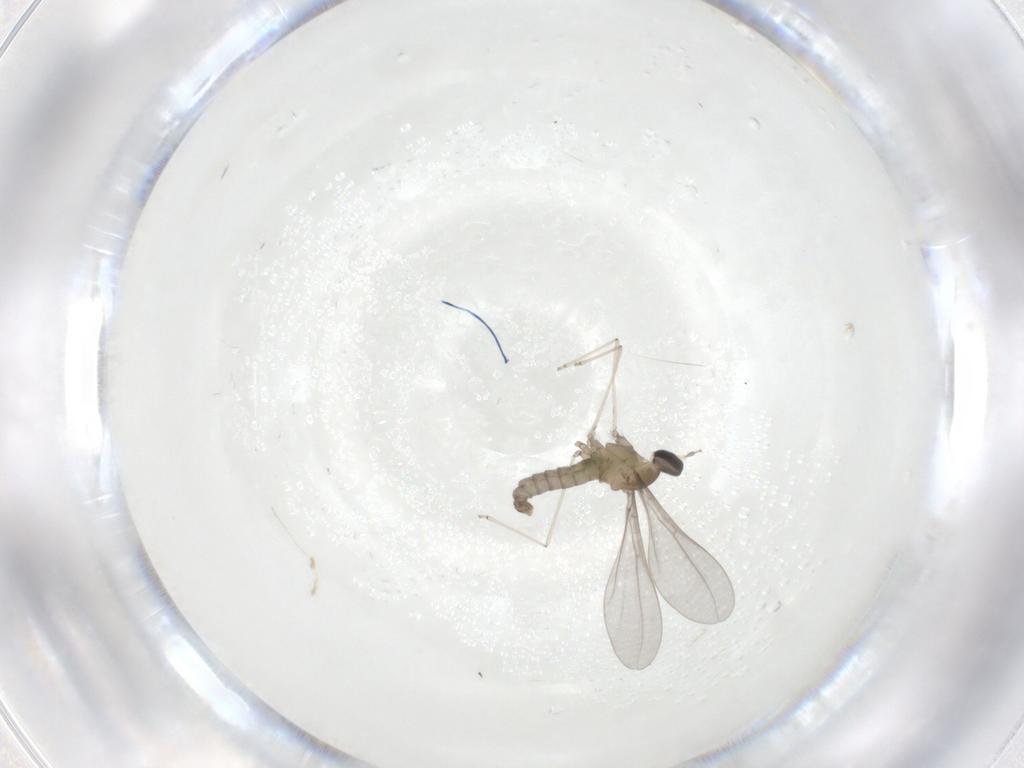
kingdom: Animalia
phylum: Arthropoda
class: Insecta
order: Diptera
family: Cecidomyiidae
